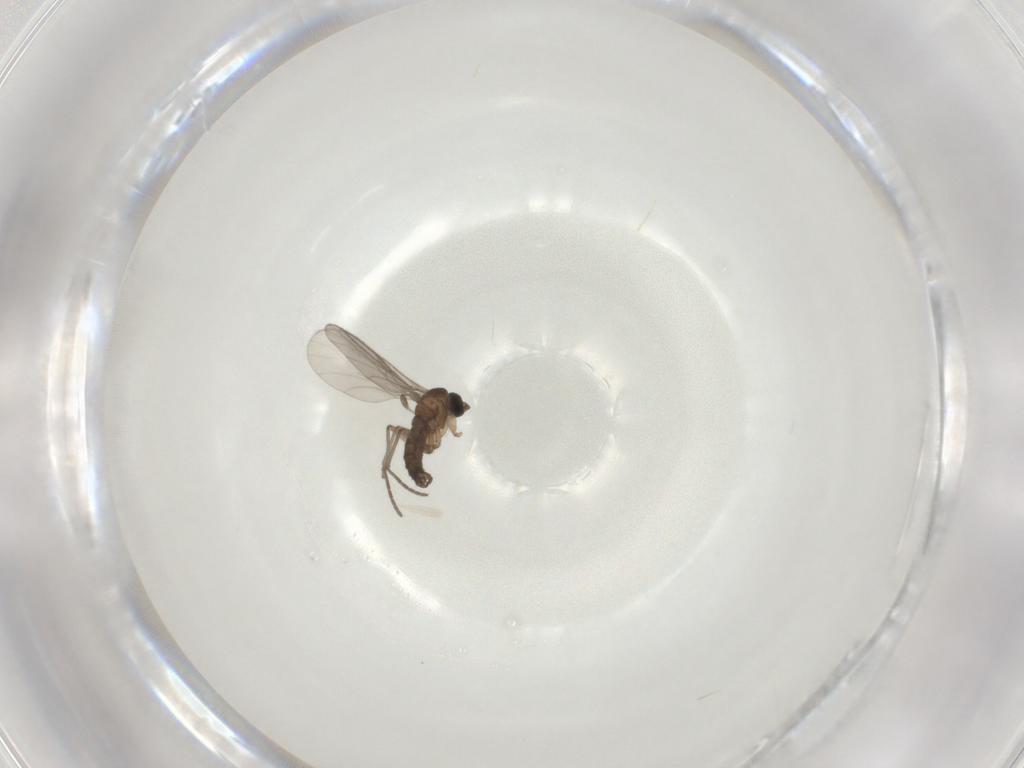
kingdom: Animalia
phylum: Arthropoda
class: Insecta
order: Diptera
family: Sciaridae
